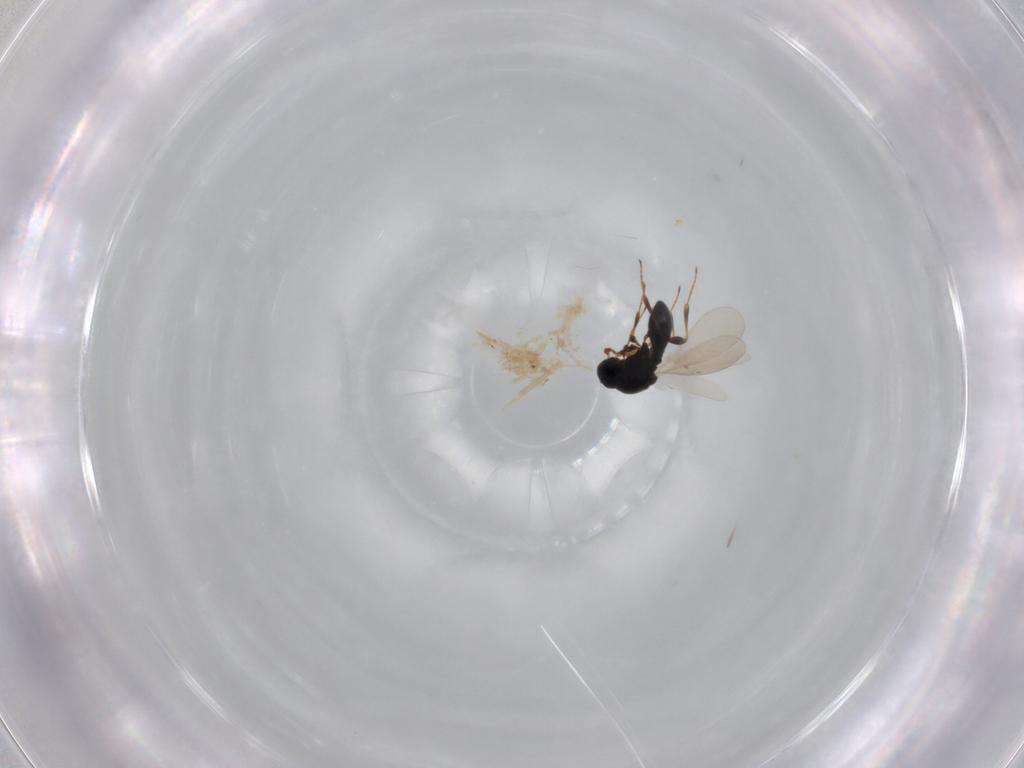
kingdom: Animalia
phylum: Arthropoda
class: Insecta
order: Hymenoptera
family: Platygastridae
